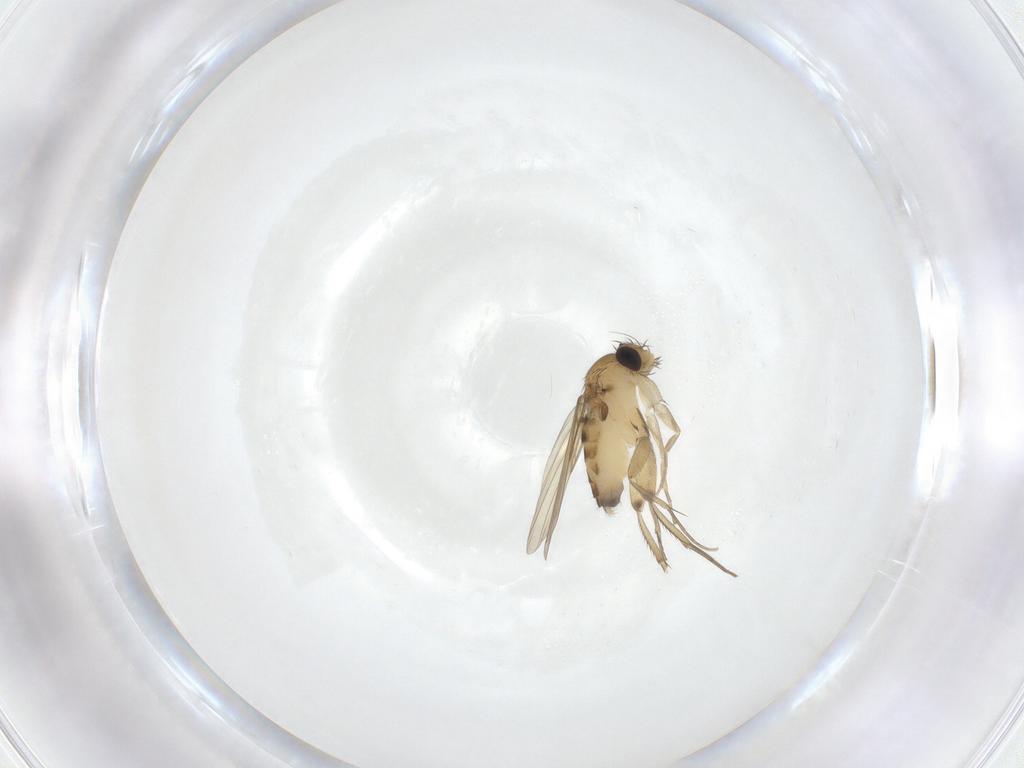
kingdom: Animalia
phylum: Arthropoda
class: Insecta
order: Diptera
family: Phoridae
